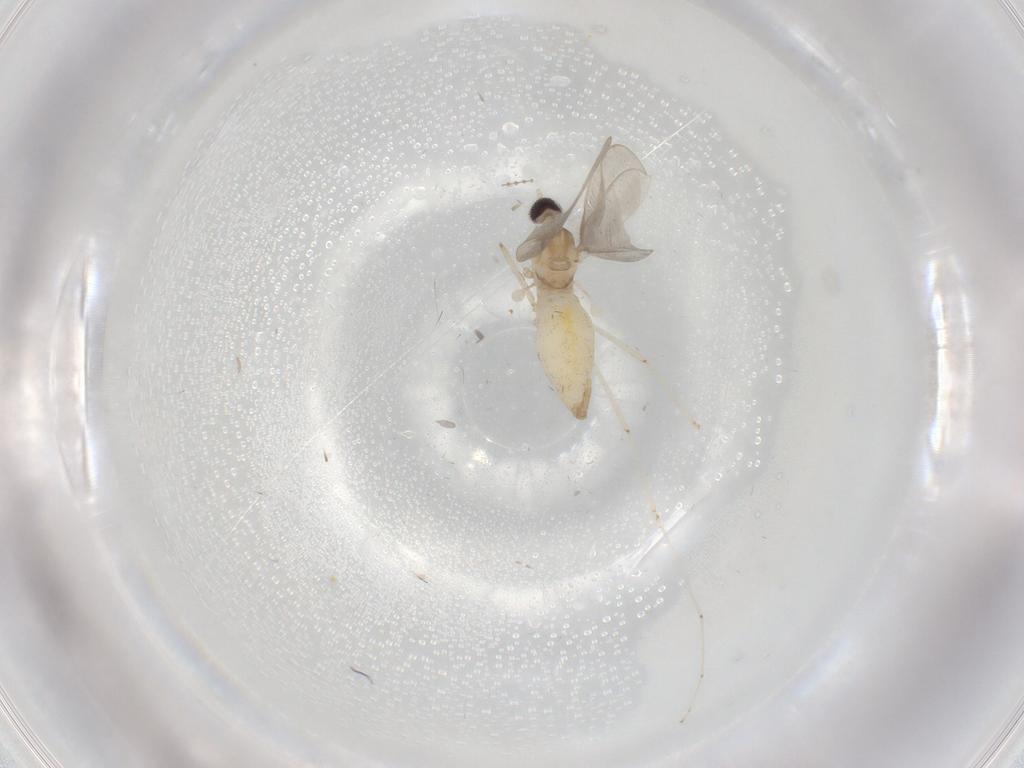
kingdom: Animalia
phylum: Arthropoda
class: Insecta
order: Diptera
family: Cecidomyiidae
